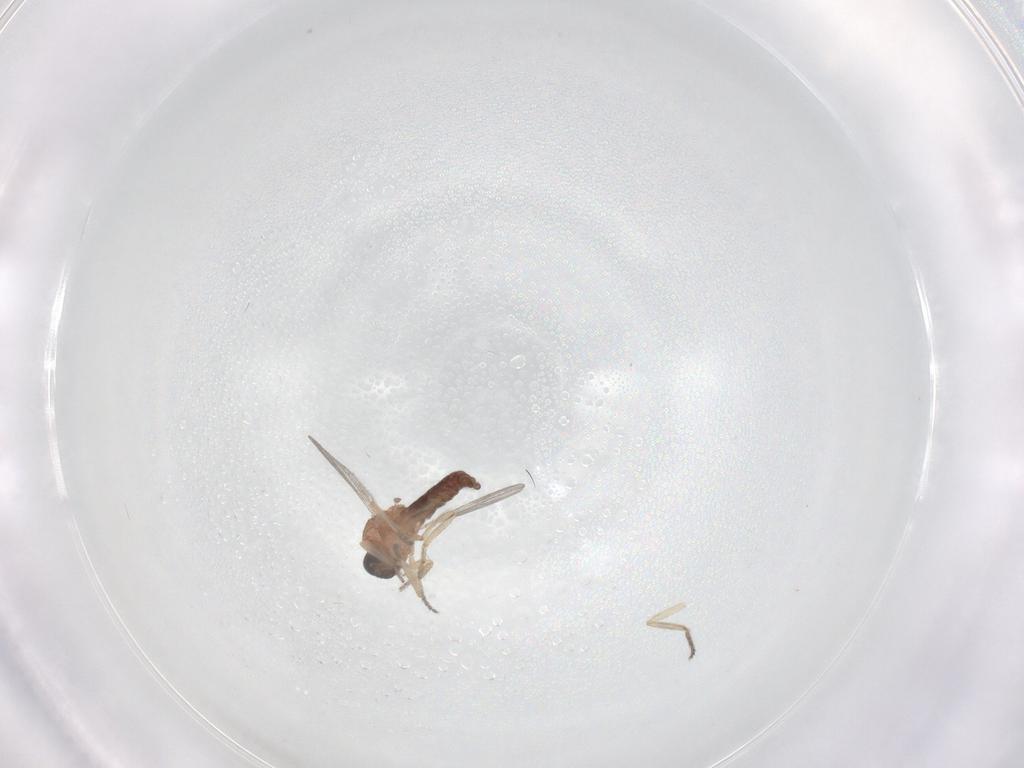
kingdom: Animalia
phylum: Arthropoda
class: Insecta
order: Diptera
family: Ceratopogonidae
